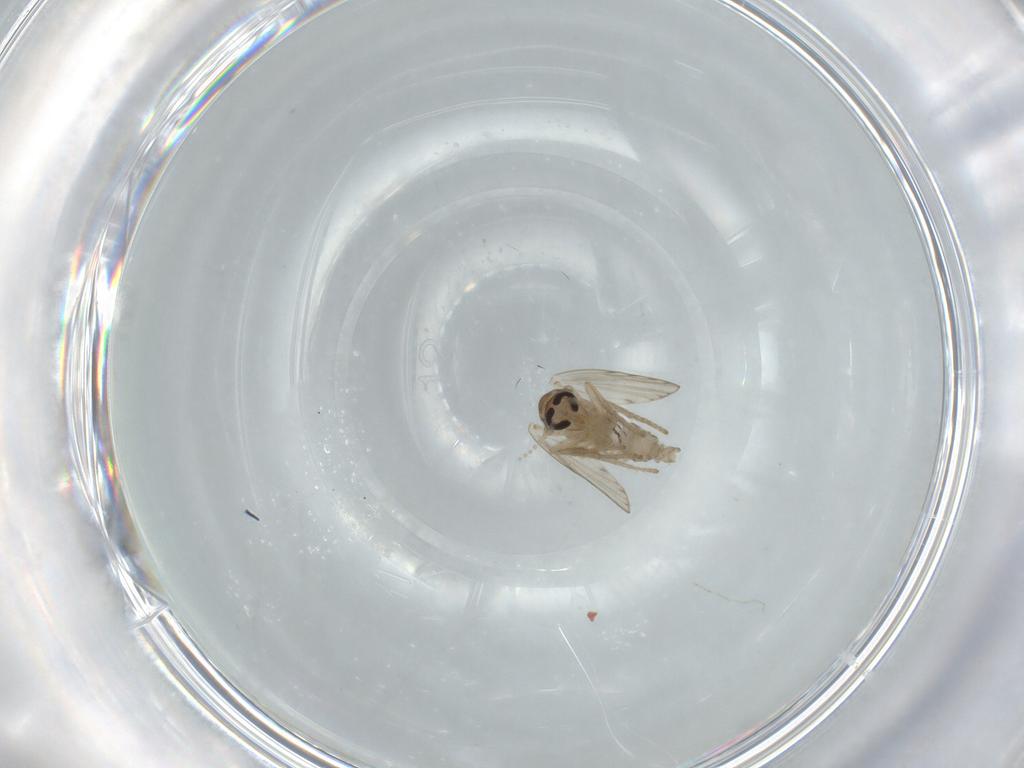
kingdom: Animalia
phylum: Arthropoda
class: Insecta
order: Diptera
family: Psychodidae
